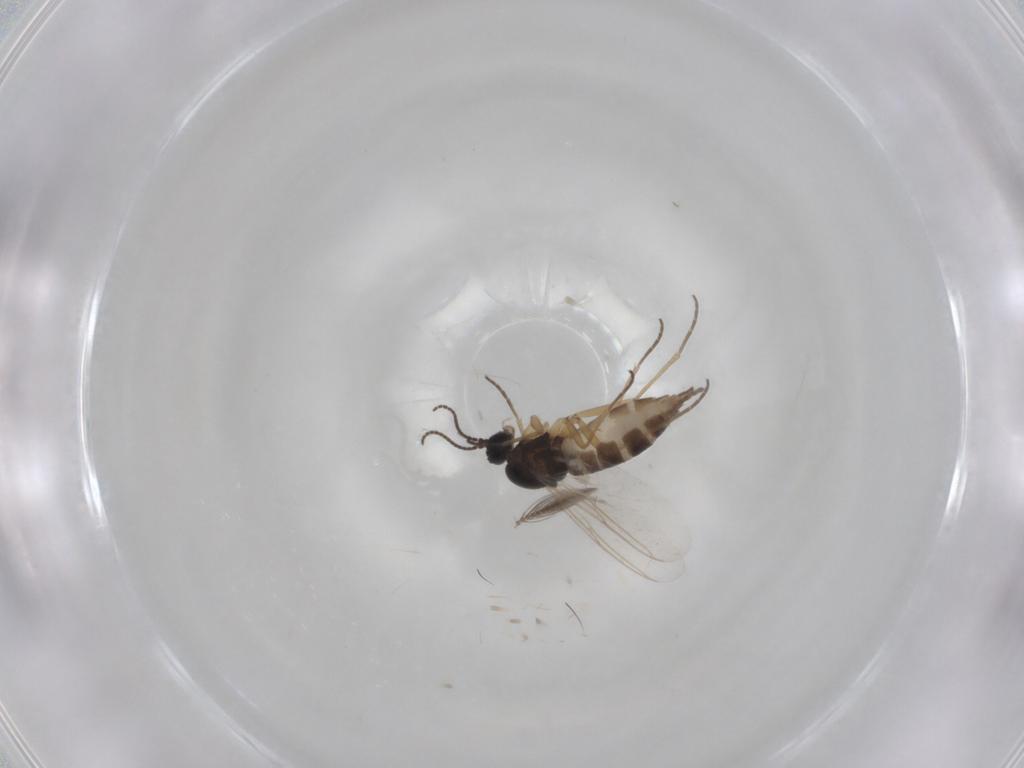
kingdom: Animalia
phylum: Arthropoda
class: Insecta
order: Diptera
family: Sciaridae
